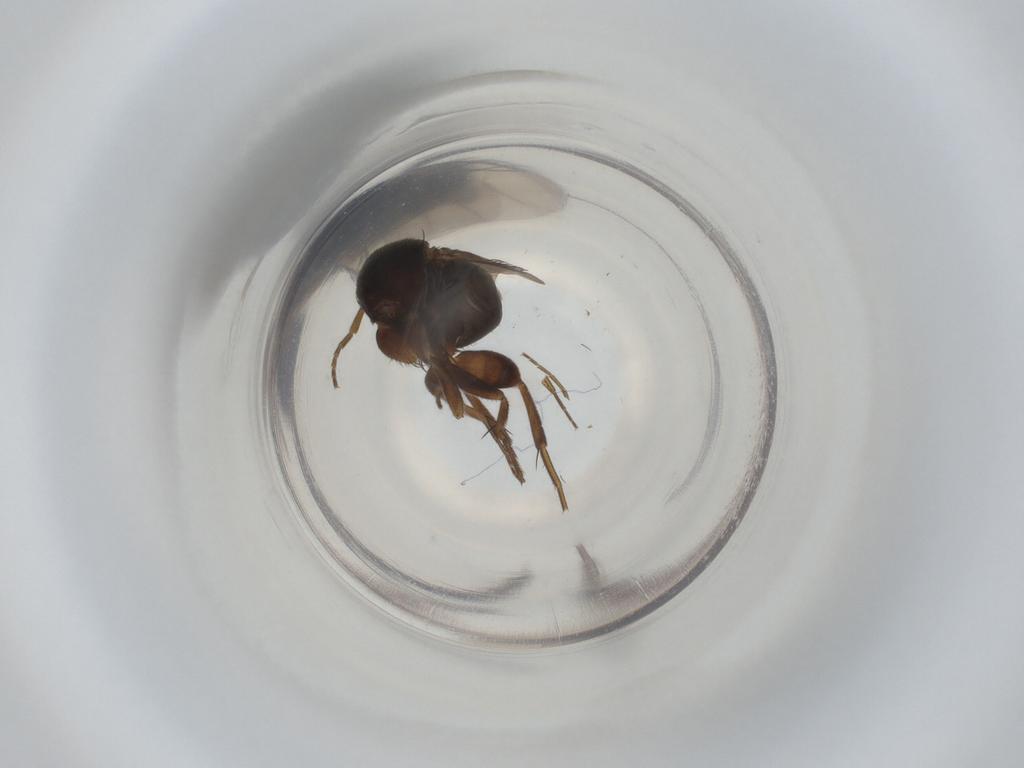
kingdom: Animalia
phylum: Arthropoda
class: Insecta
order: Diptera
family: Phoridae
